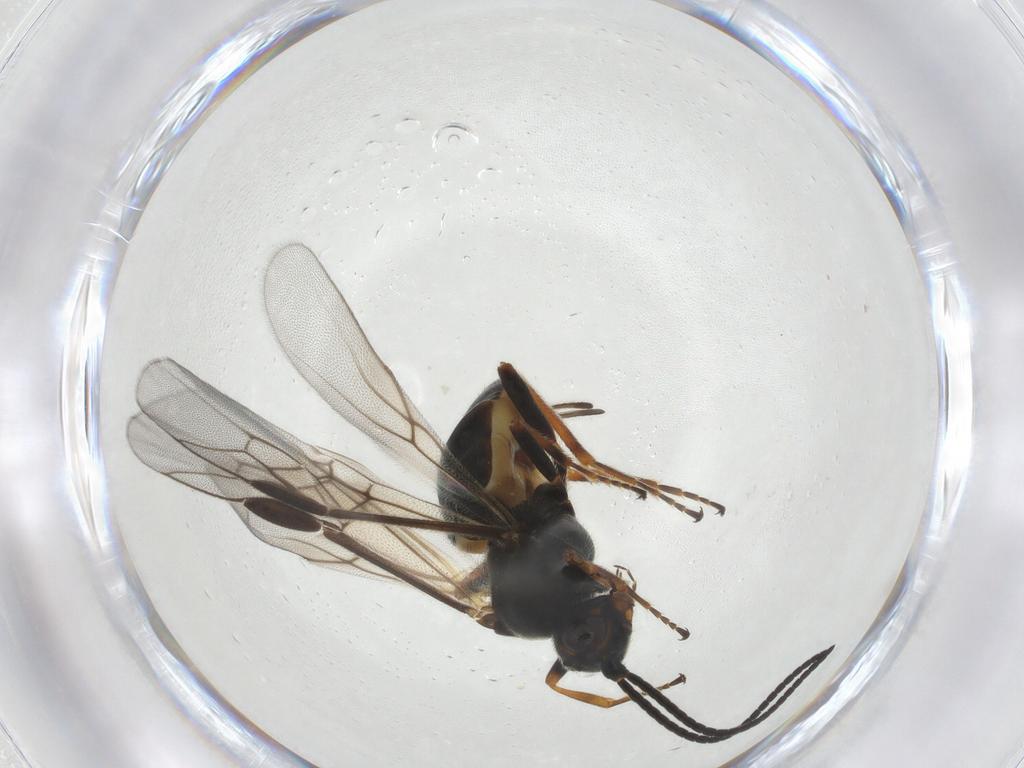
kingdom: Animalia
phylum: Arthropoda
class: Insecta
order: Hymenoptera
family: Braconidae
